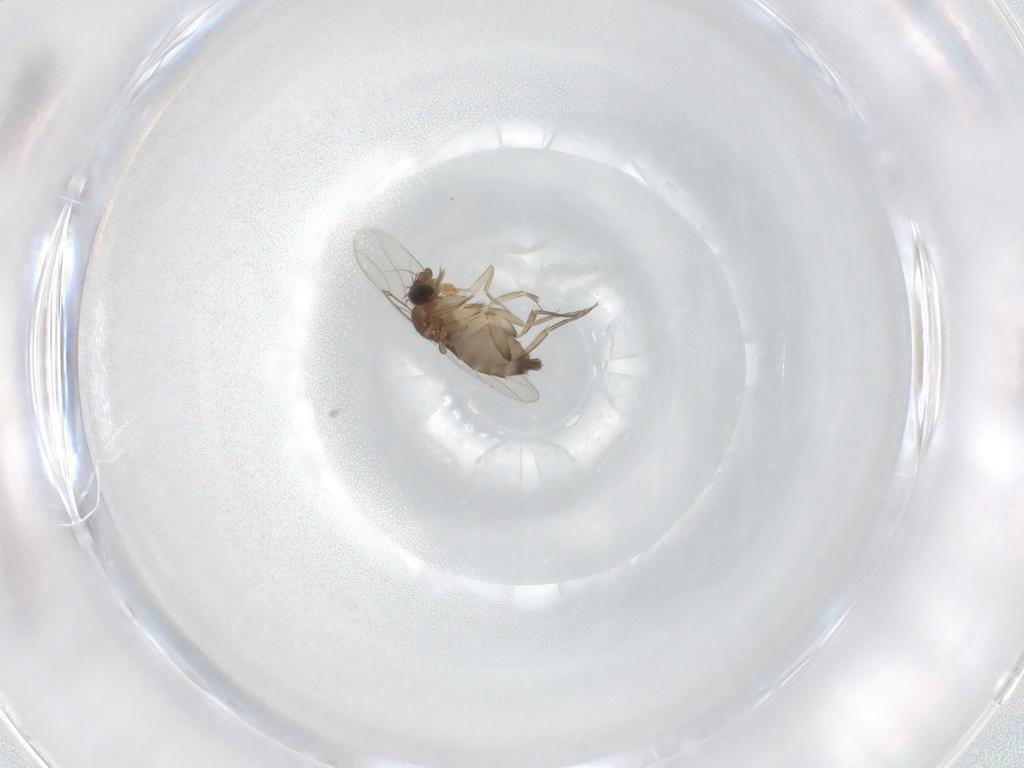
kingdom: Animalia
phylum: Arthropoda
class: Insecta
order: Diptera
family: Phoridae
